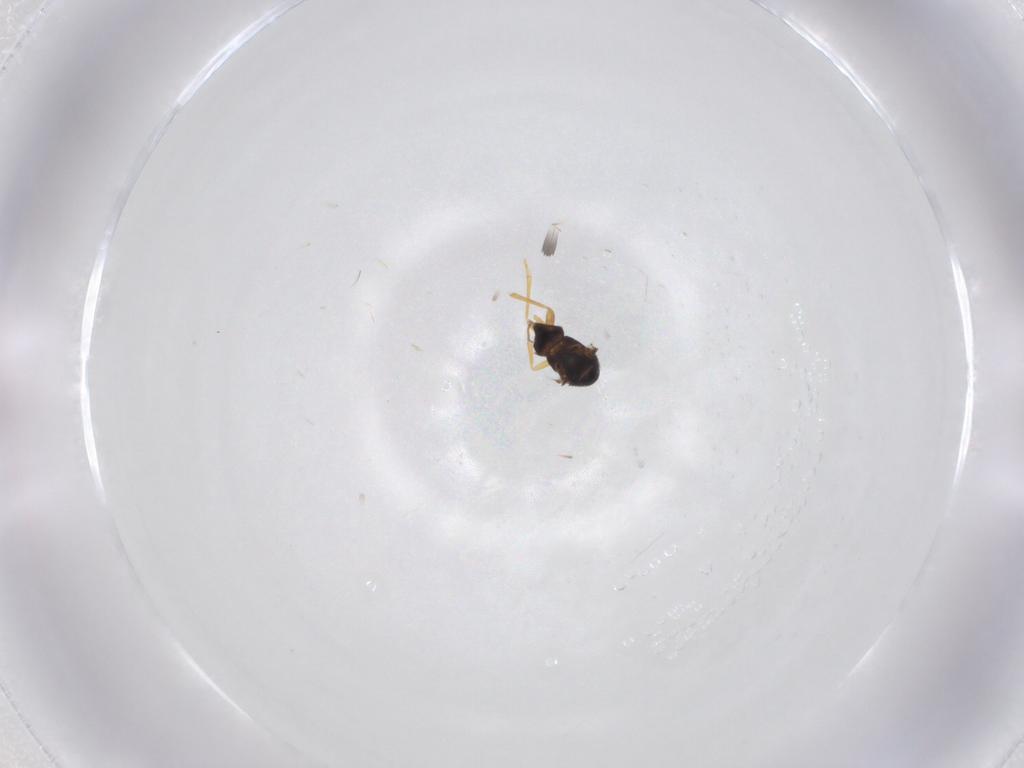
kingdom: Animalia
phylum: Arthropoda
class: Insecta
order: Hymenoptera
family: Encyrtidae
